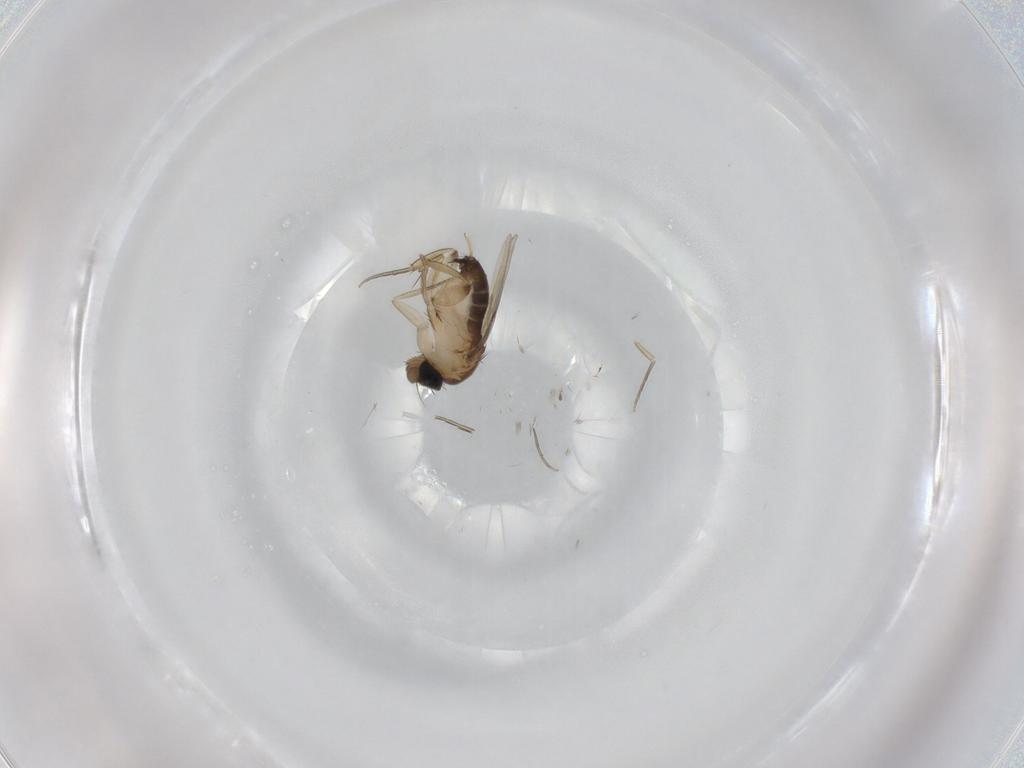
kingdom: Animalia
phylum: Arthropoda
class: Insecta
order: Diptera
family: Phoridae
